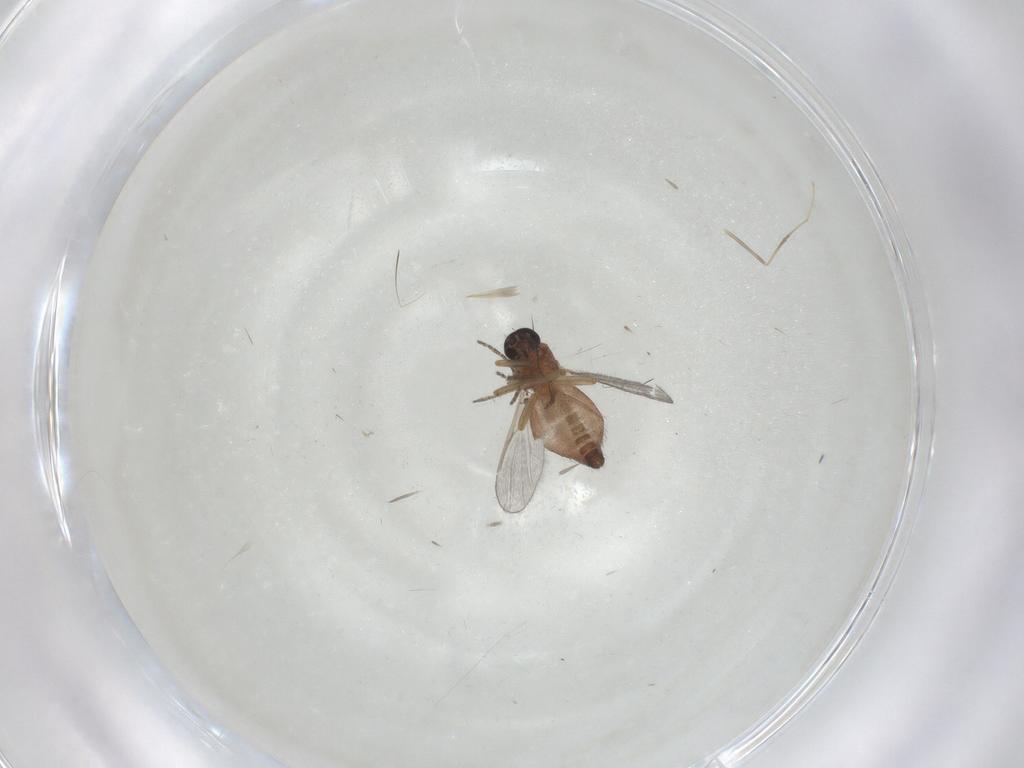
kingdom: Animalia
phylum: Arthropoda
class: Insecta
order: Diptera
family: Ceratopogonidae
